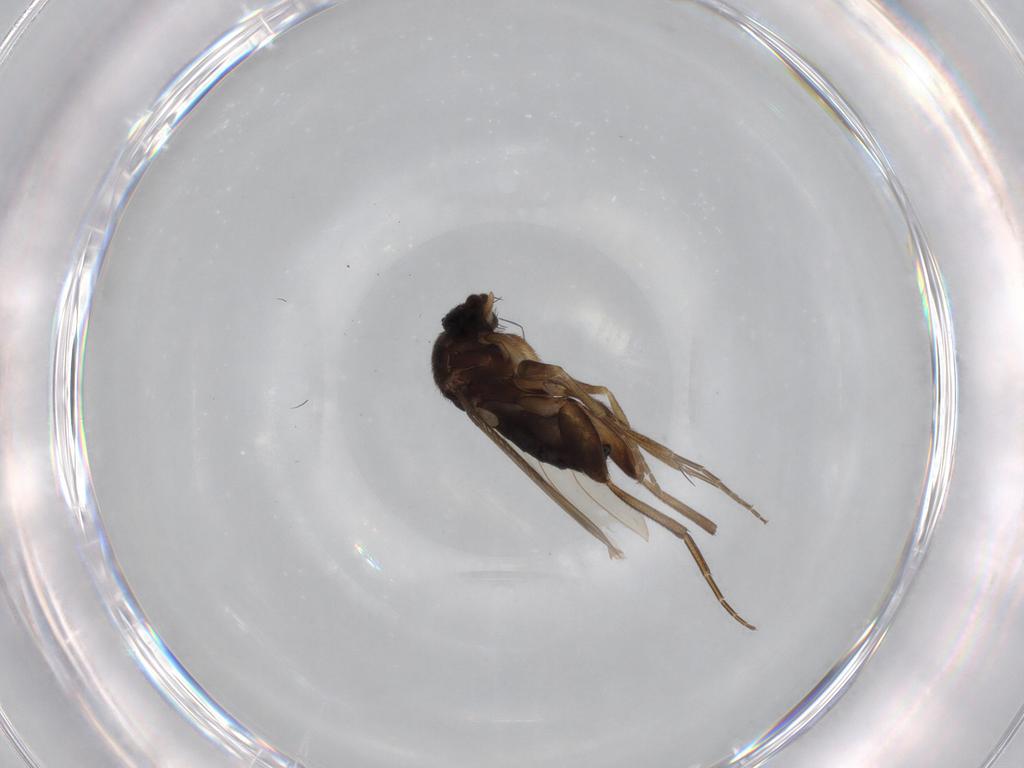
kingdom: Animalia
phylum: Arthropoda
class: Insecta
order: Diptera
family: Phoridae
